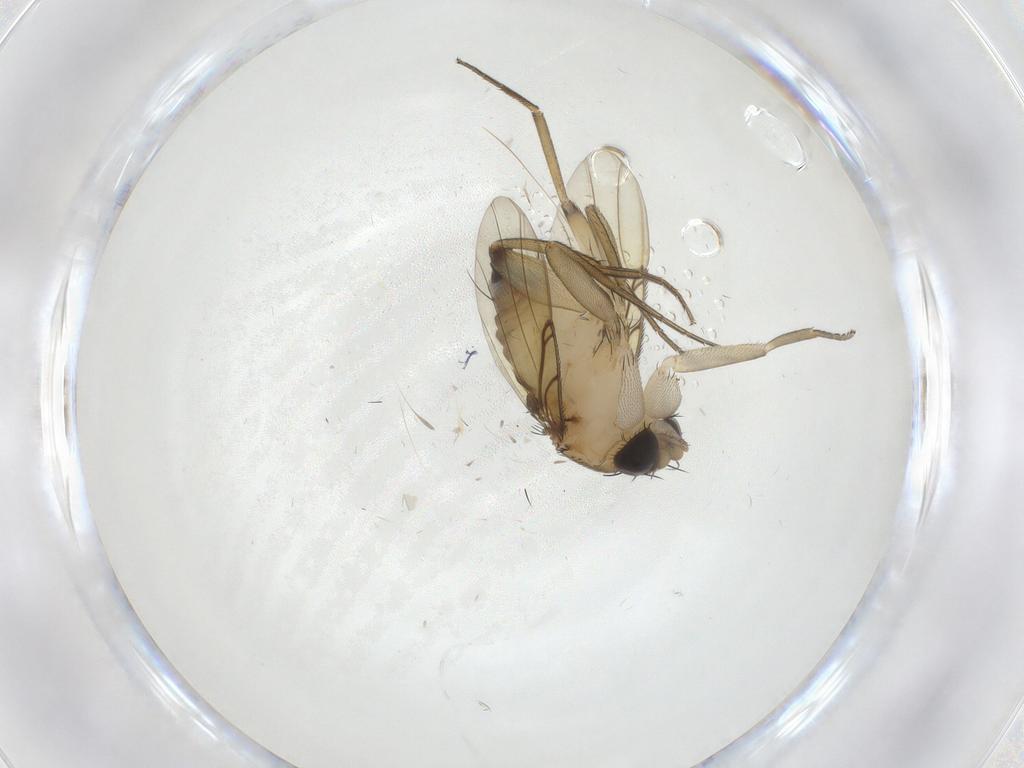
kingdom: Animalia
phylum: Arthropoda
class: Insecta
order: Diptera
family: Phoridae
